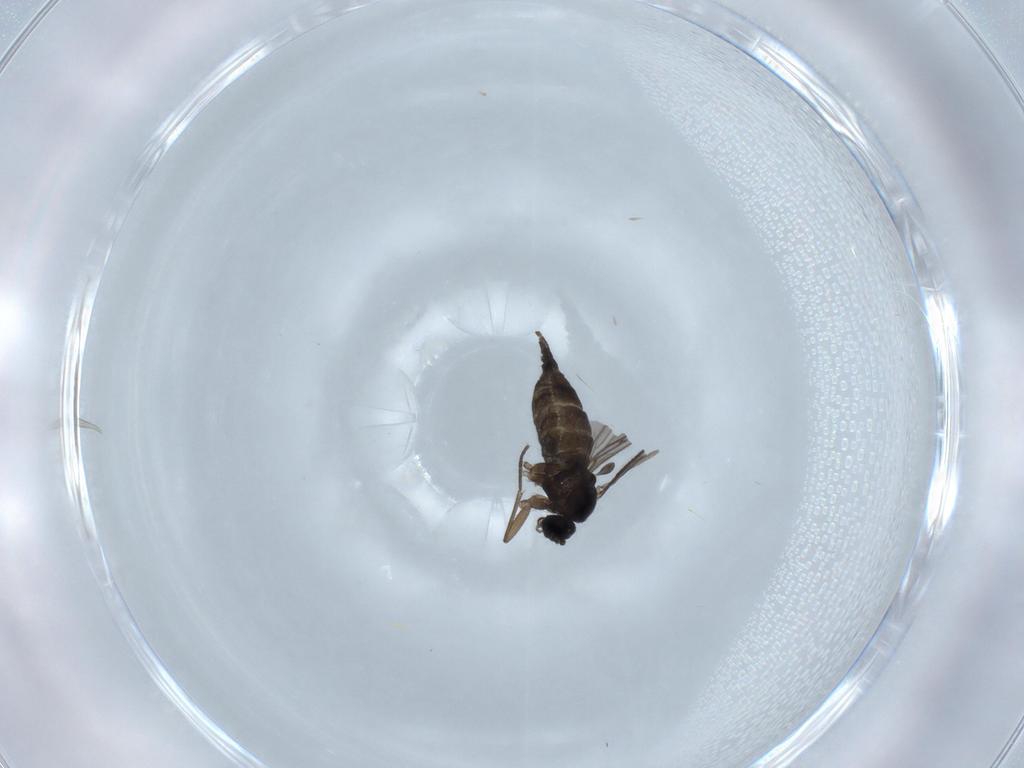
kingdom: Animalia
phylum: Arthropoda
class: Insecta
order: Diptera
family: Sciaridae
